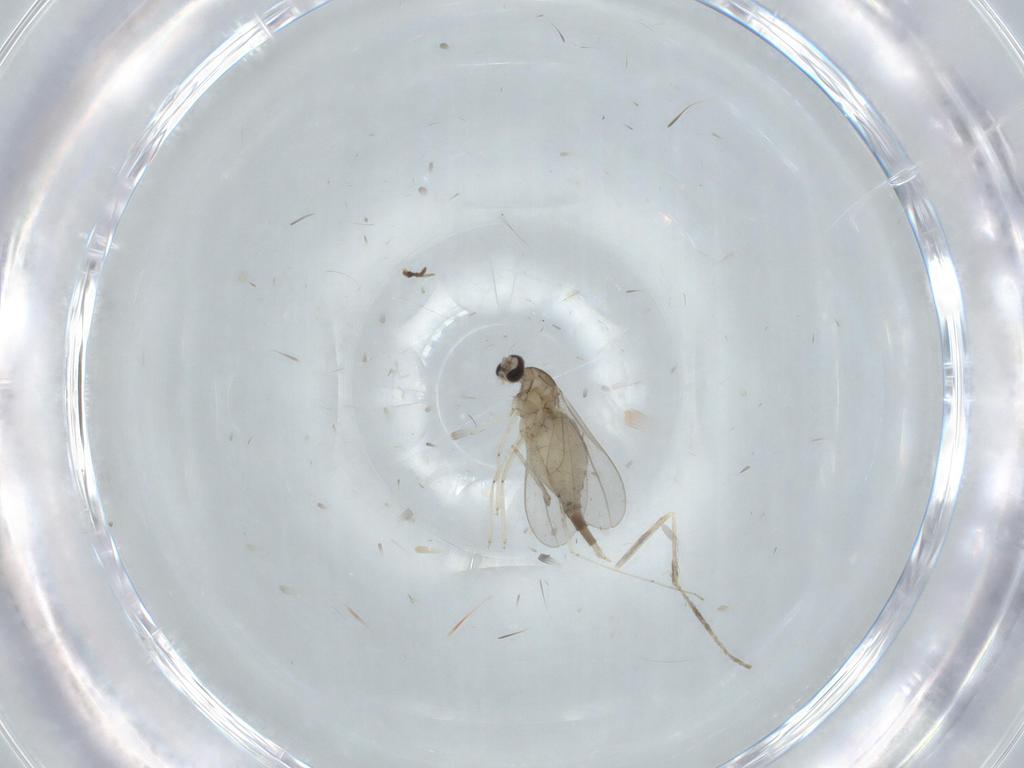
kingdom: Animalia
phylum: Arthropoda
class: Insecta
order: Diptera
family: Cecidomyiidae
